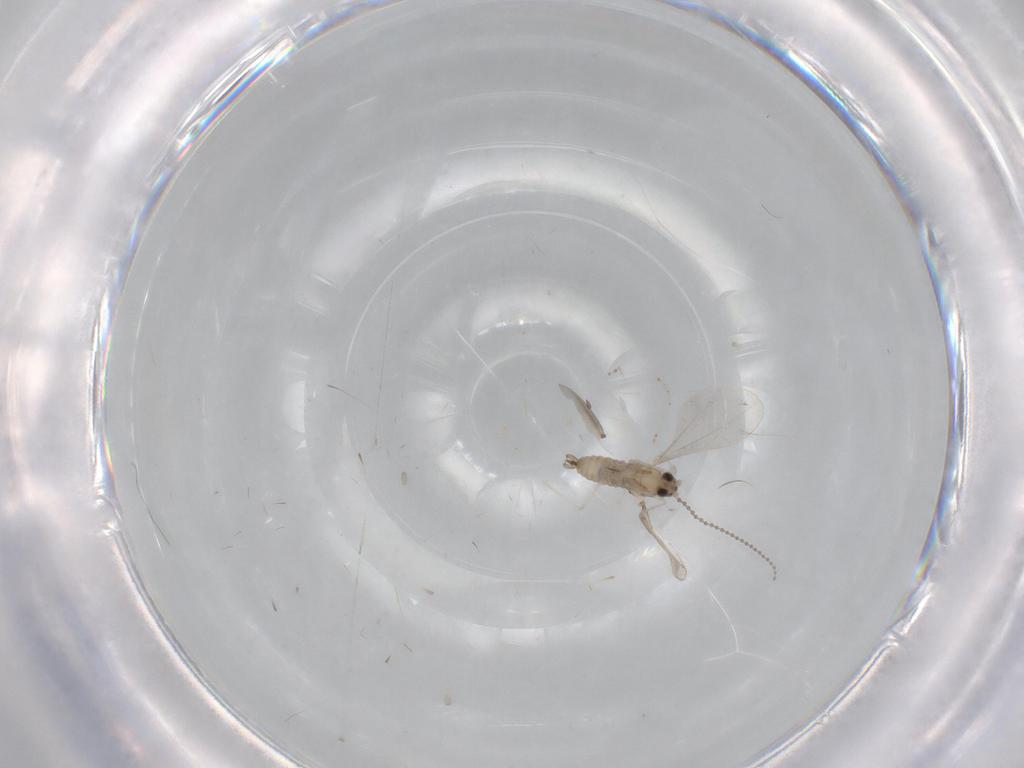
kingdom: Animalia
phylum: Arthropoda
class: Insecta
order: Diptera
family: Cecidomyiidae
